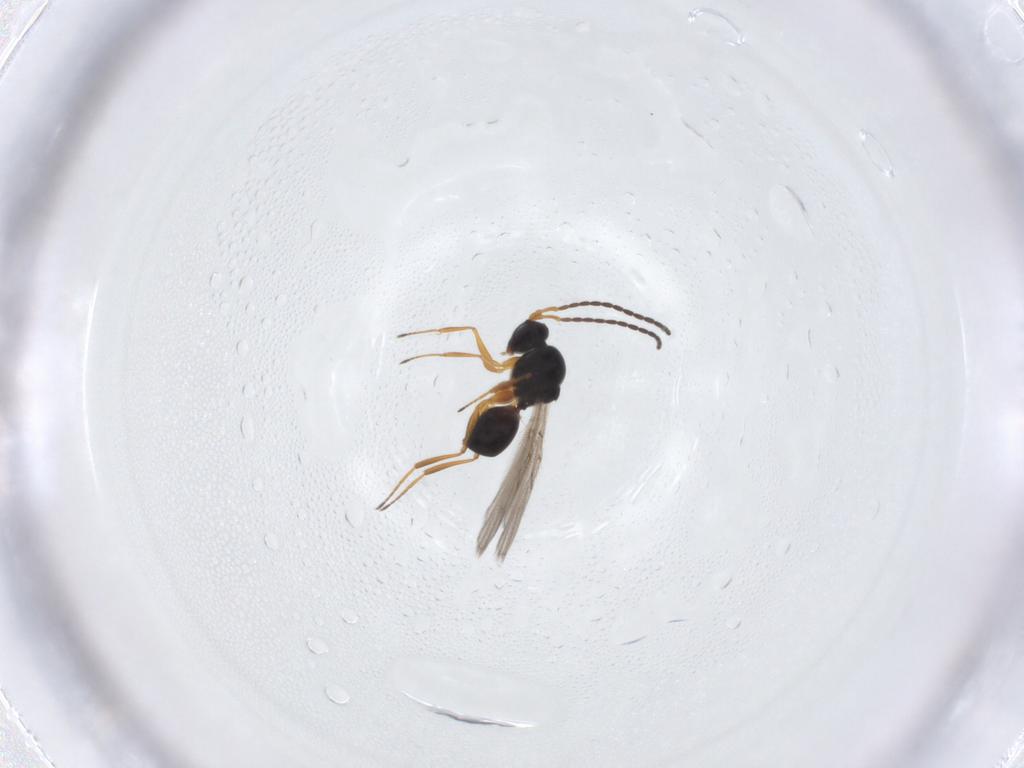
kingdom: Animalia
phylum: Arthropoda
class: Insecta
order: Hymenoptera
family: Figitidae
